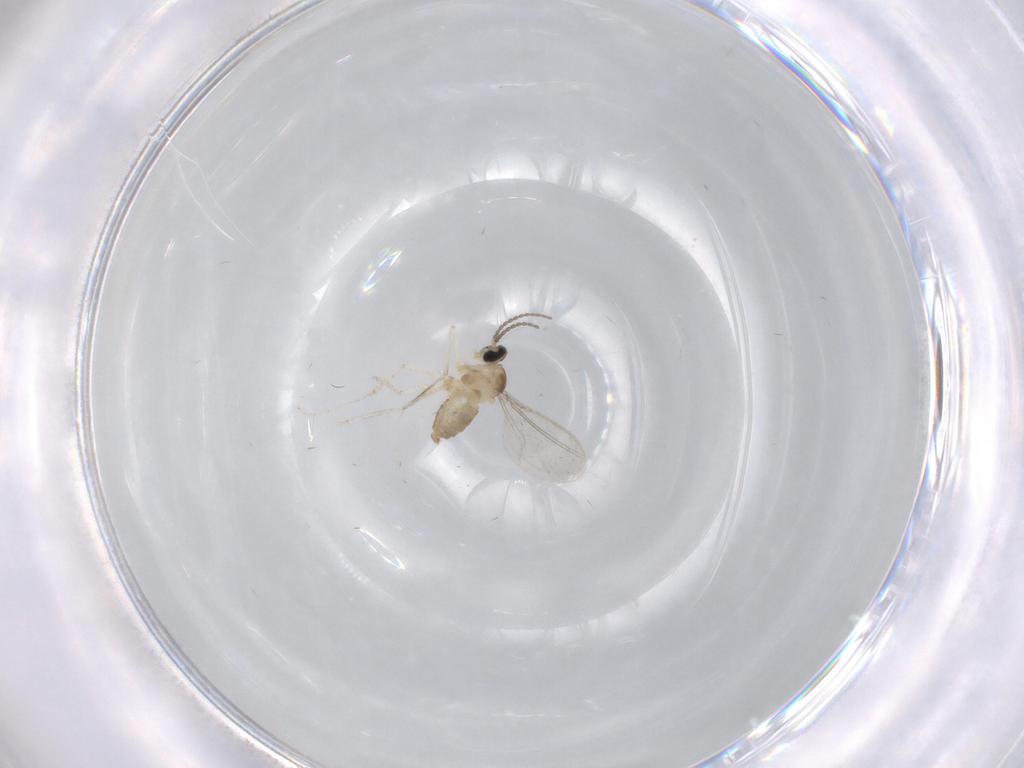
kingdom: Animalia
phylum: Arthropoda
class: Insecta
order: Diptera
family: Cecidomyiidae
